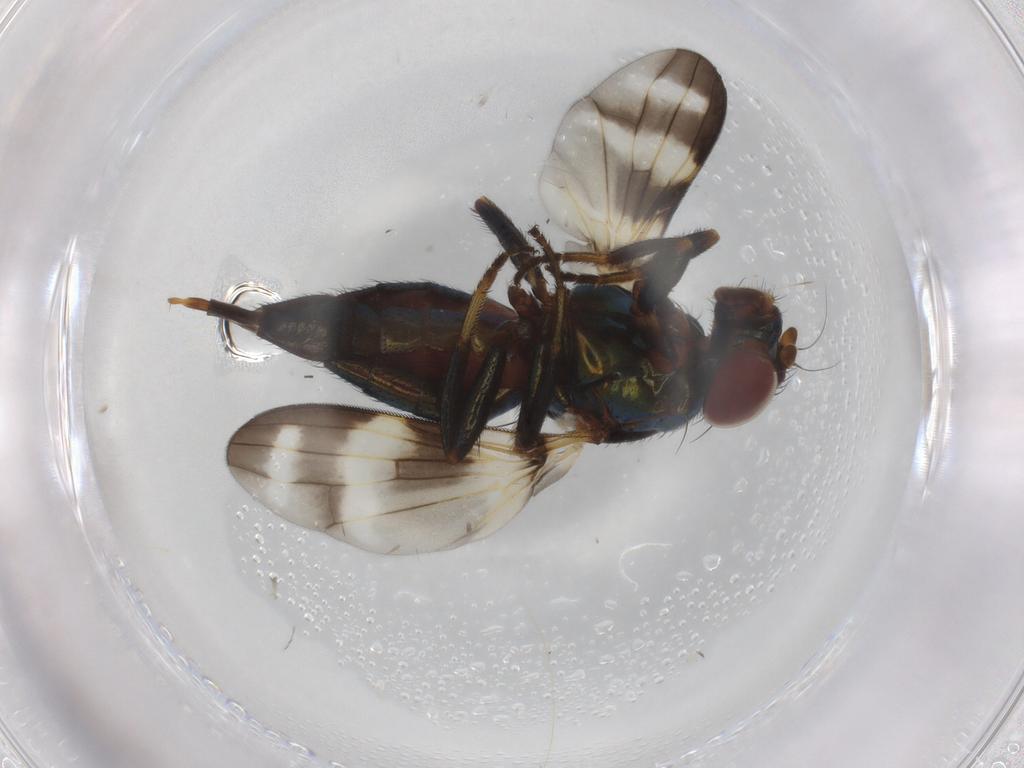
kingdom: Animalia
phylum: Arthropoda
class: Insecta
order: Diptera
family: Ulidiidae
